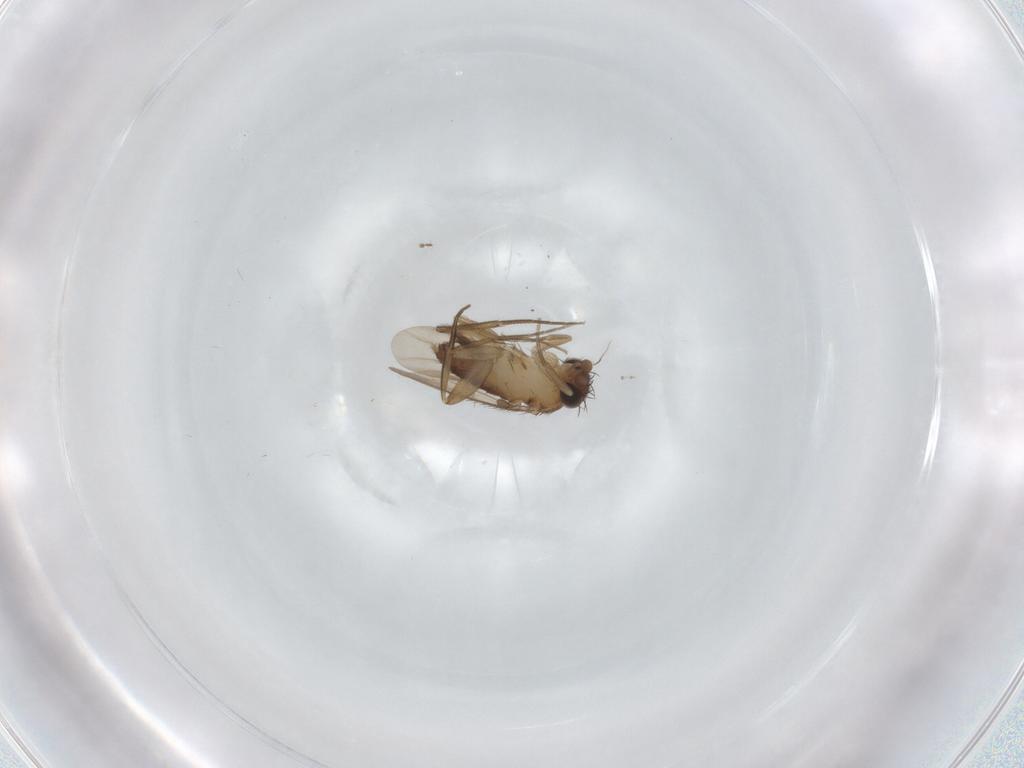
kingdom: Animalia
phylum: Arthropoda
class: Insecta
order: Diptera
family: Phoridae
